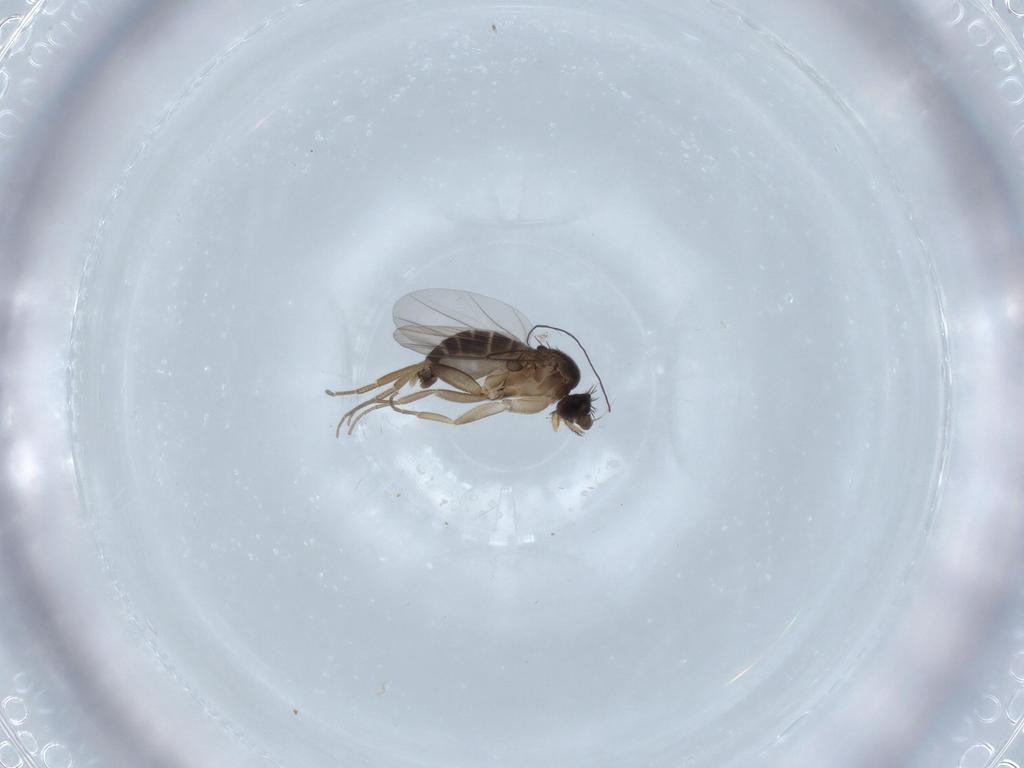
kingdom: Animalia
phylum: Arthropoda
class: Insecta
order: Diptera
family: Phoridae
